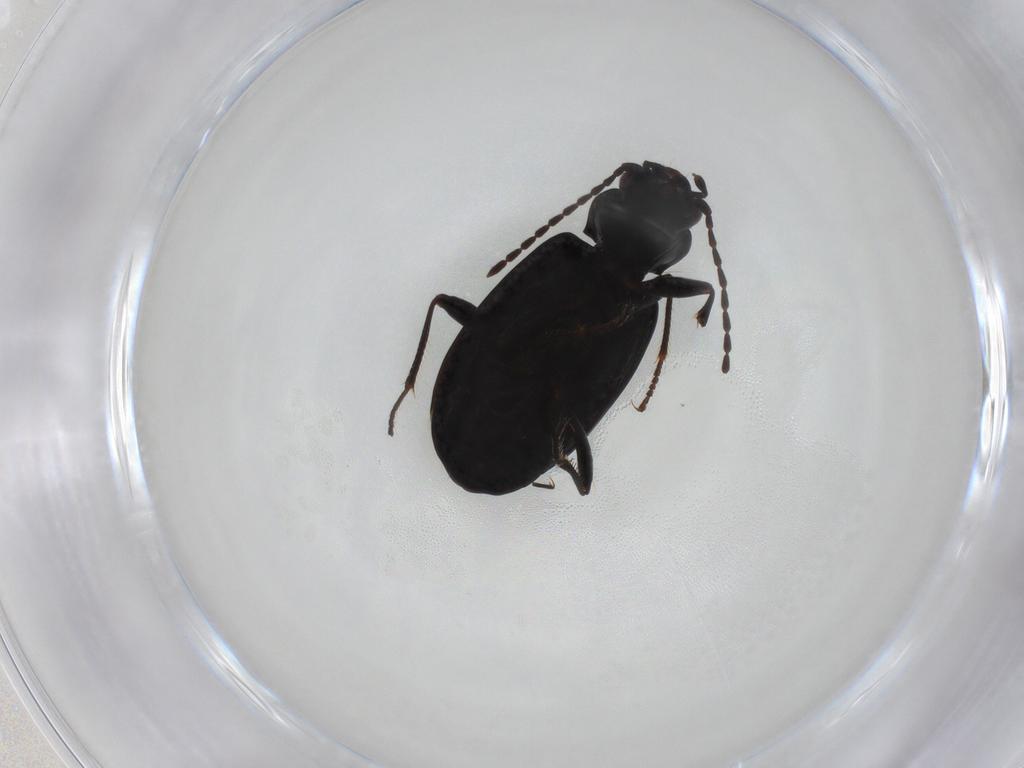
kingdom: Animalia
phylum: Arthropoda
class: Insecta
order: Coleoptera
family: Carabidae
